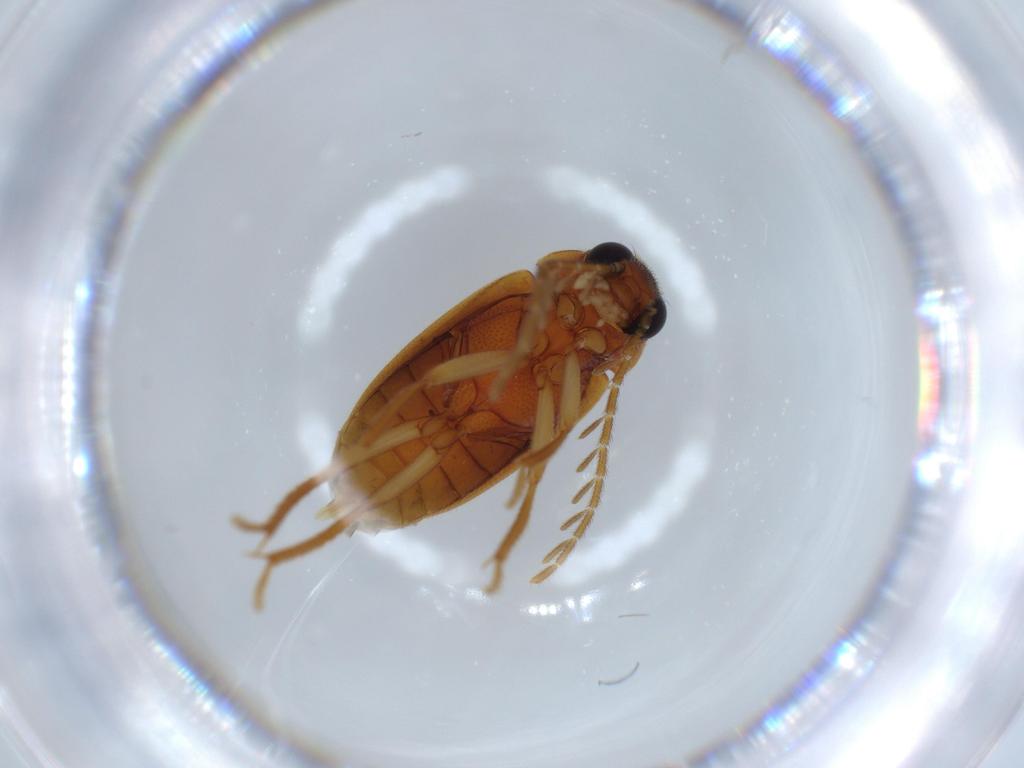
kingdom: Animalia
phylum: Arthropoda
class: Insecta
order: Coleoptera
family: Ptilodactylidae
